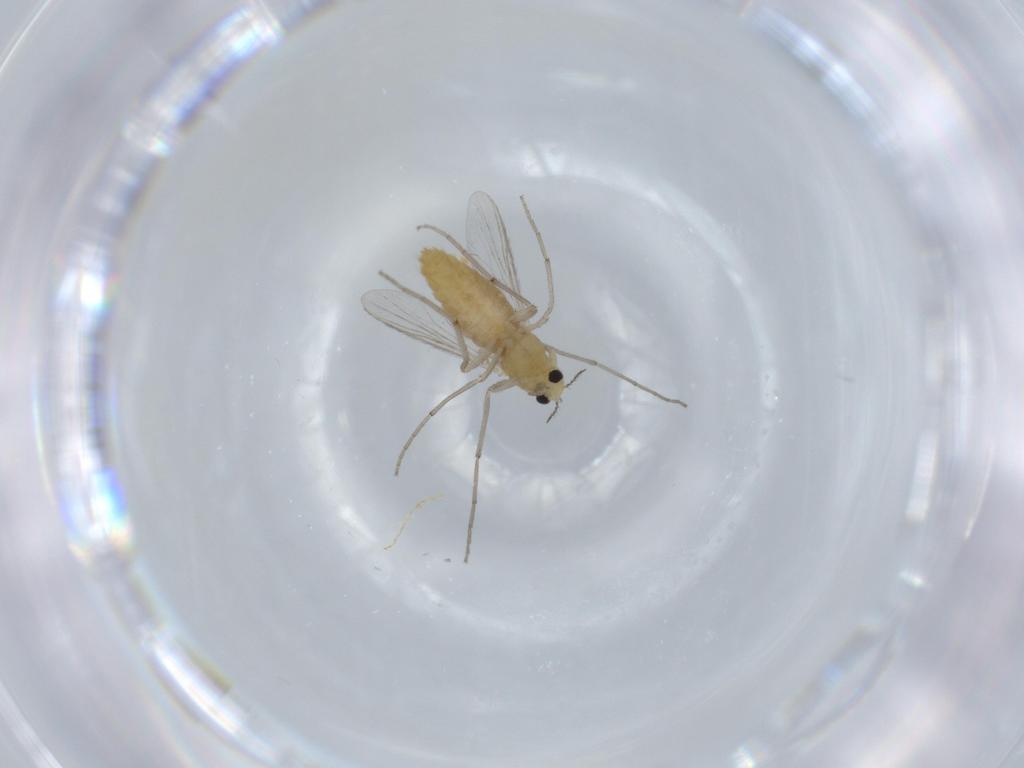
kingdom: Animalia
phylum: Arthropoda
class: Insecta
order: Diptera
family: Chironomidae
